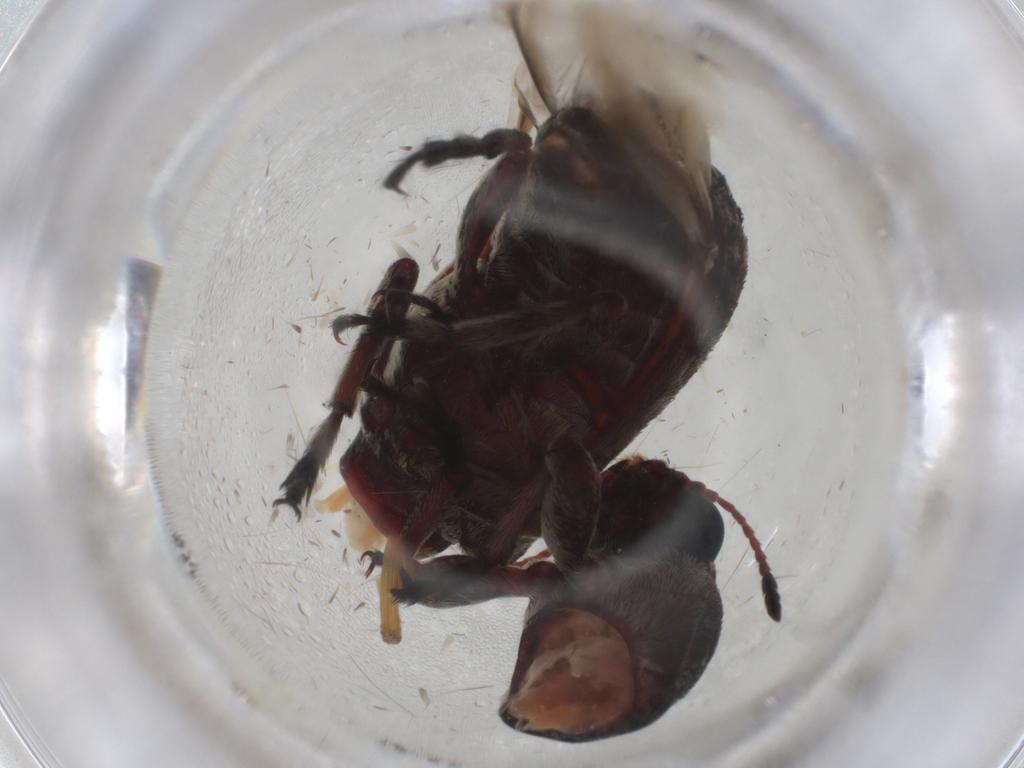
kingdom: Animalia
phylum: Arthropoda
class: Insecta
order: Coleoptera
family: Anthribidae
